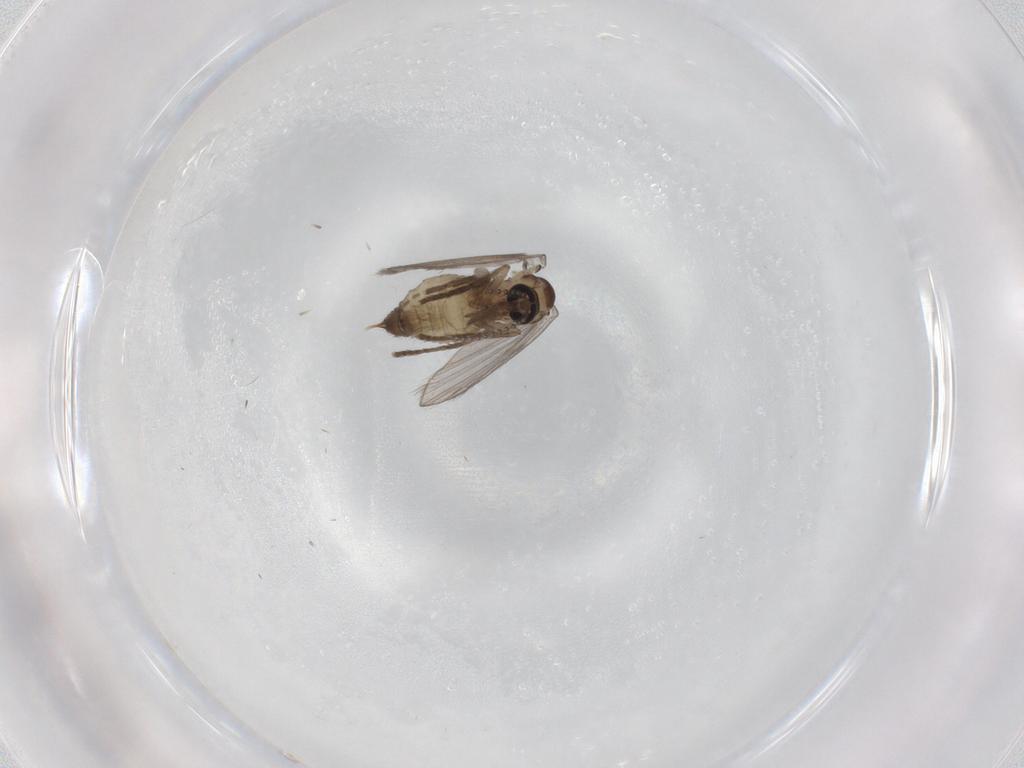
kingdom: Animalia
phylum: Arthropoda
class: Insecta
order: Diptera
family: Psychodidae
